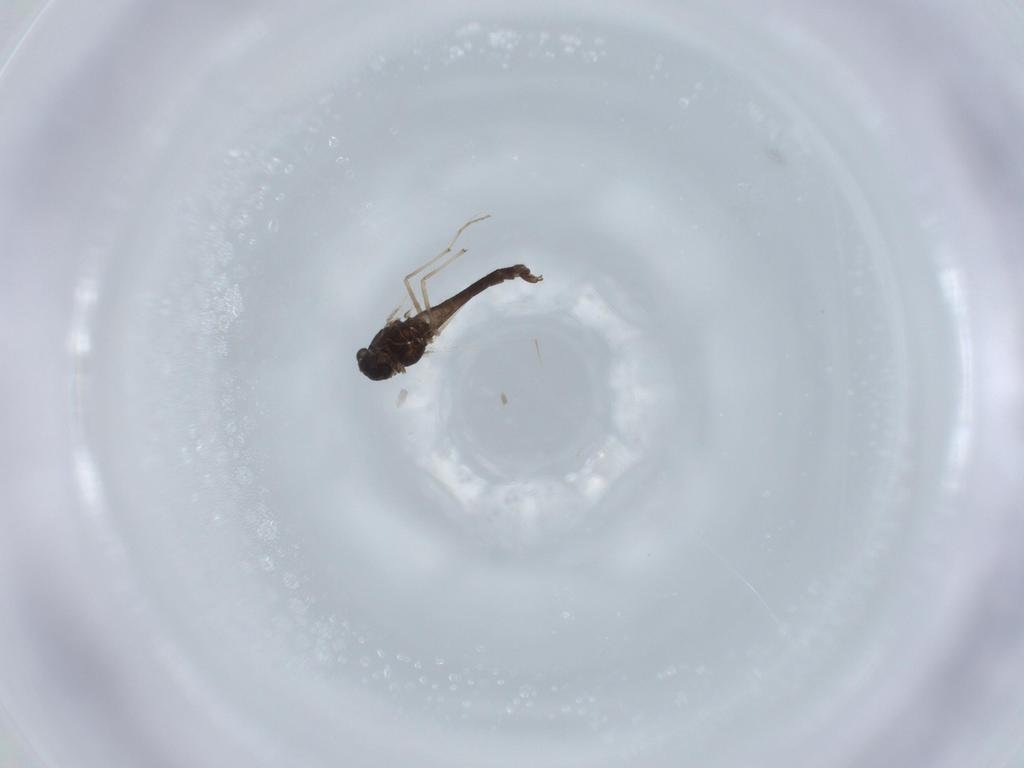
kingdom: Animalia
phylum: Arthropoda
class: Insecta
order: Diptera
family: Chironomidae
